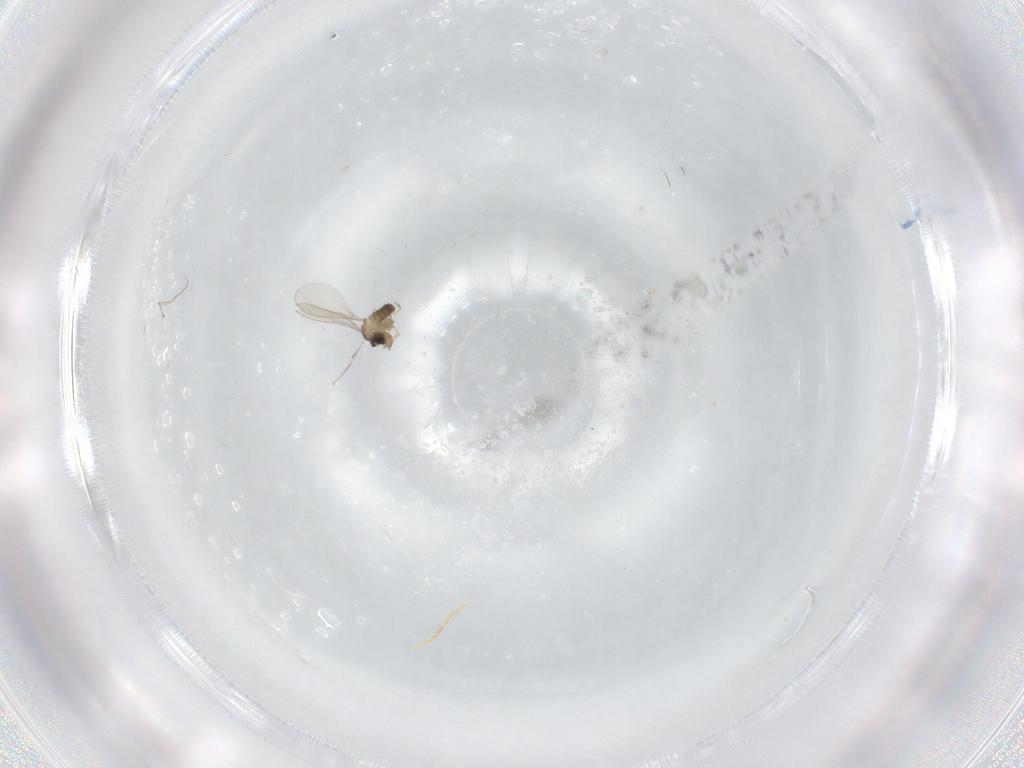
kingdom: Animalia
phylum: Arthropoda
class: Insecta
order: Diptera
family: Cecidomyiidae
